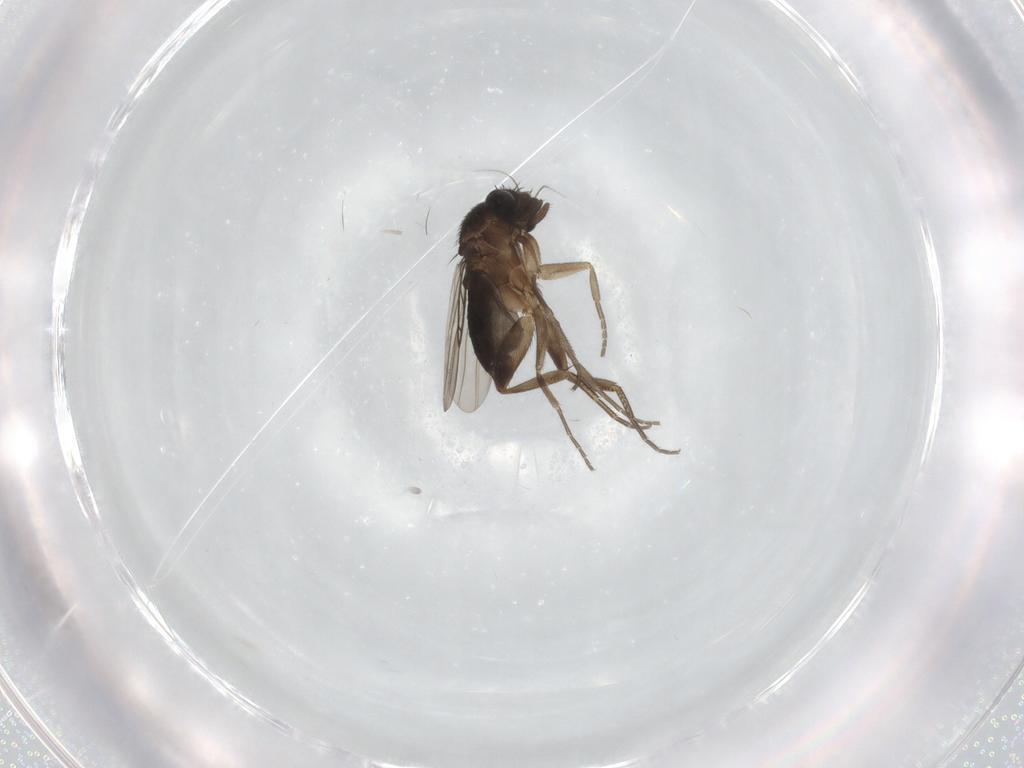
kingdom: Animalia
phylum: Arthropoda
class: Insecta
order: Diptera
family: Phoridae
